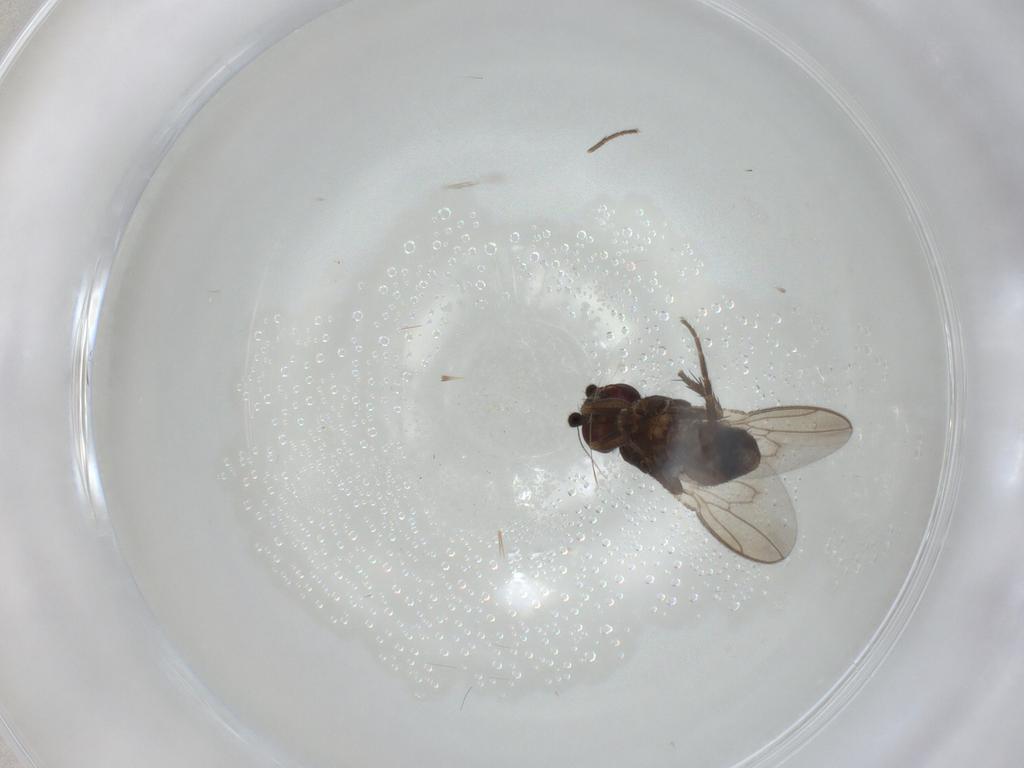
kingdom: Animalia
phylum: Arthropoda
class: Insecta
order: Diptera
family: Sphaeroceridae
